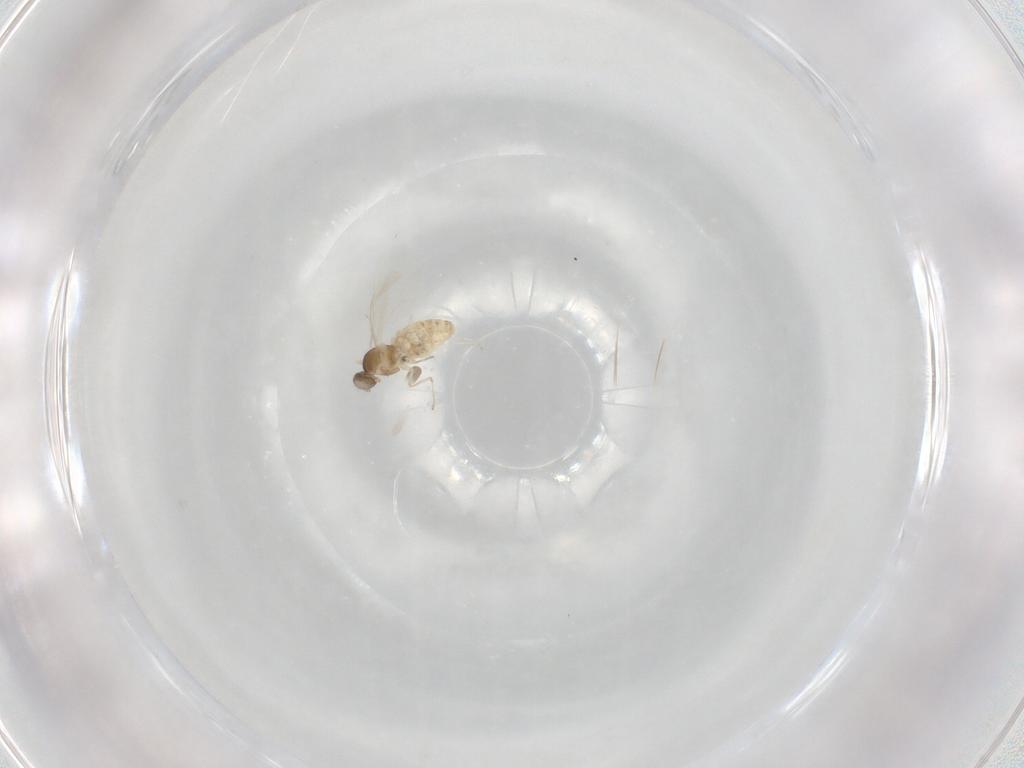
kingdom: Animalia
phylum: Arthropoda
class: Insecta
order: Diptera
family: Cecidomyiidae
